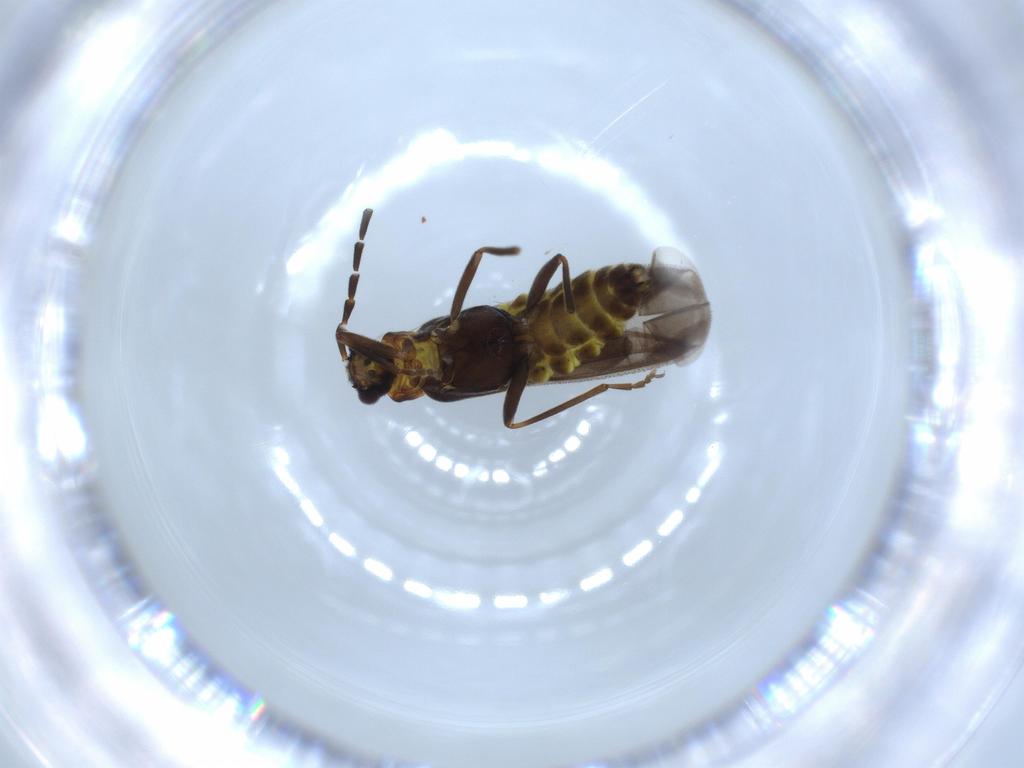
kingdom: Animalia
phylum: Arthropoda
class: Insecta
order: Coleoptera
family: Cantharidae
